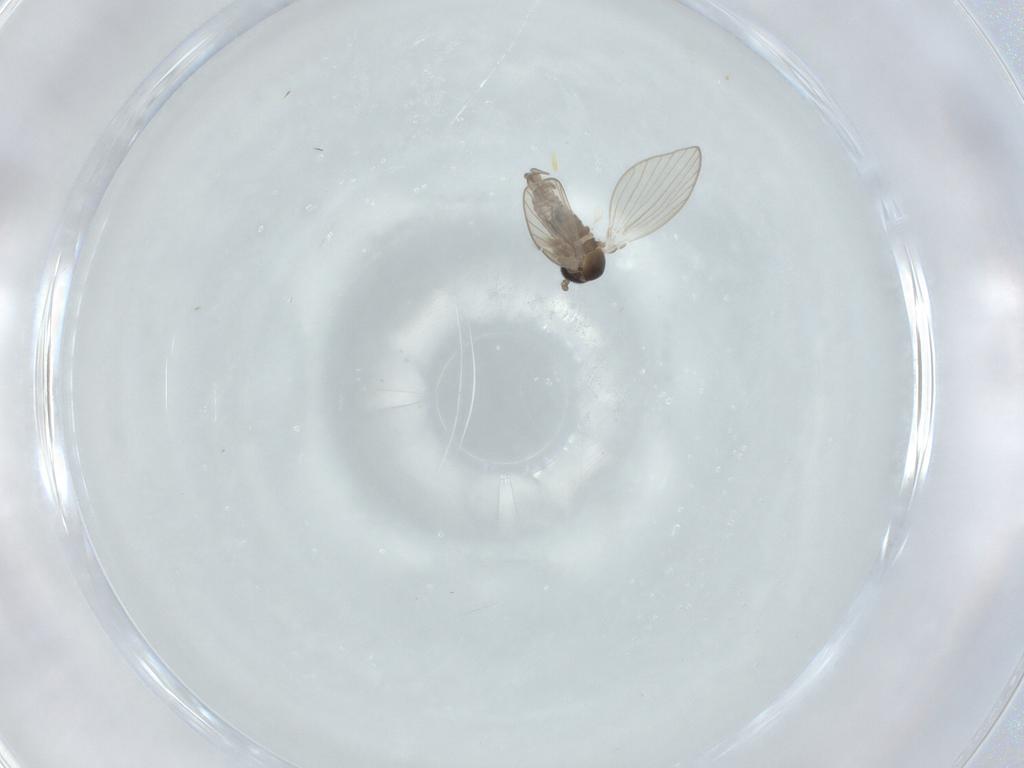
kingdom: Animalia
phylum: Arthropoda
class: Insecta
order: Diptera
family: Psychodidae
